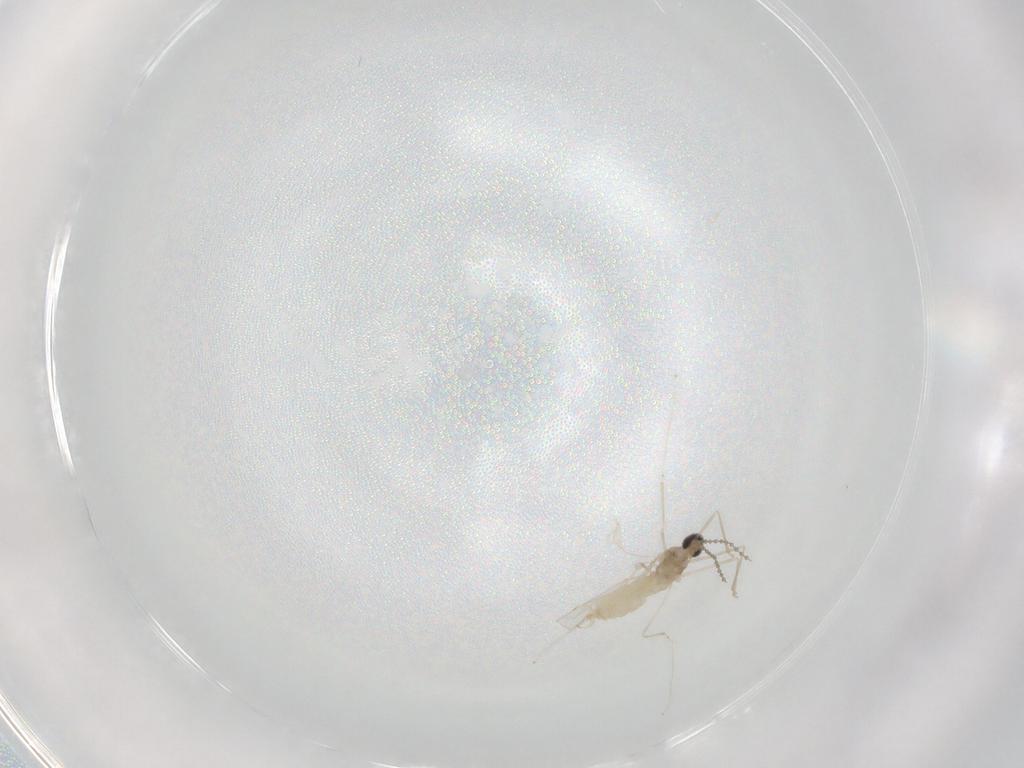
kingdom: Animalia
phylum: Arthropoda
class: Insecta
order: Diptera
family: Cecidomyiidae
